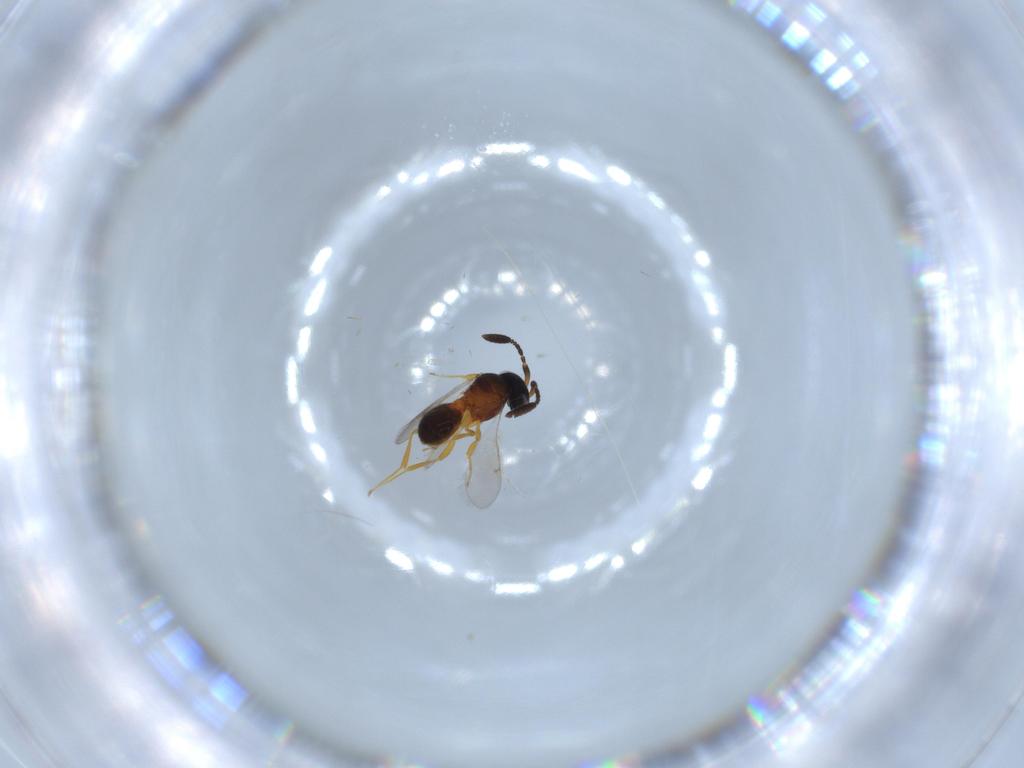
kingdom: Animalia
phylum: Arthropoda
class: Insecta
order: Hymenoptera
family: Scelionidae
